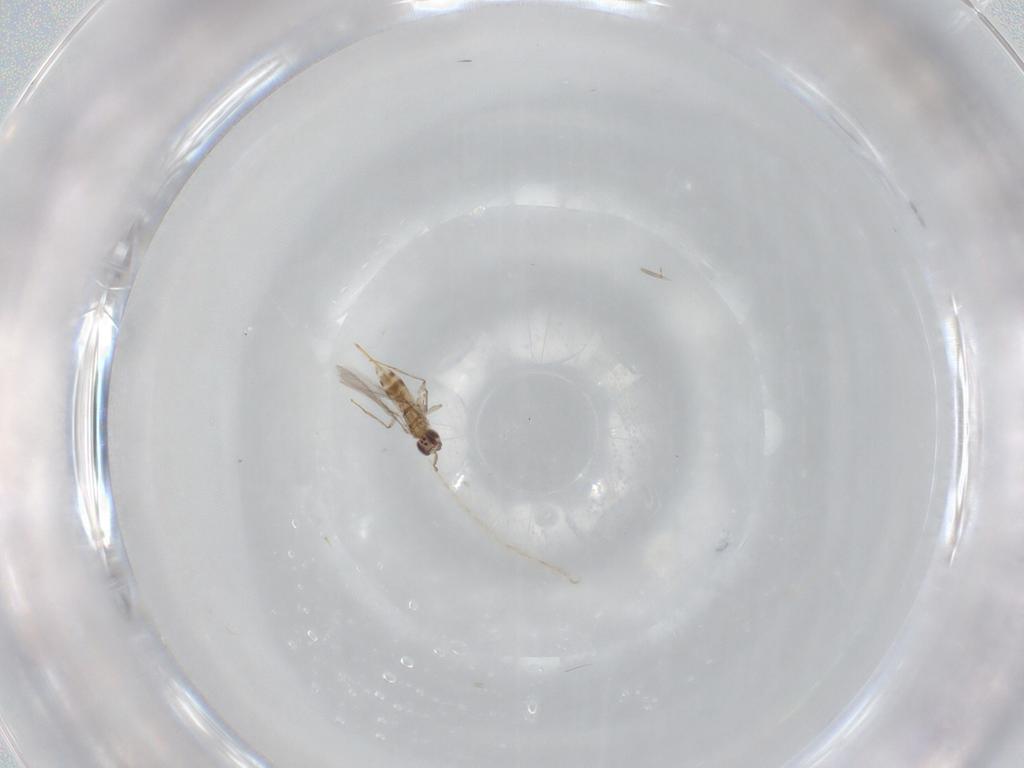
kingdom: Animalia
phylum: Arthropoda
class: Insecta
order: Hymenoptera
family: Mymaridae
